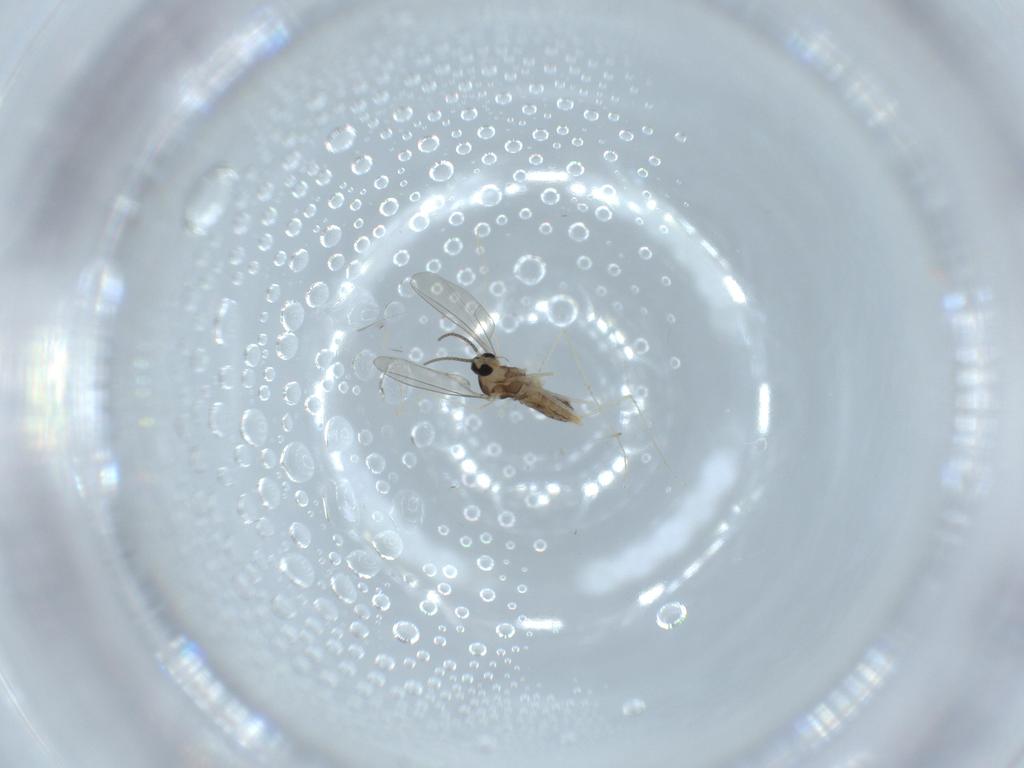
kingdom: Animalia
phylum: Arthropoda
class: Insecta
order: Diptera
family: Cecidomyiidae
